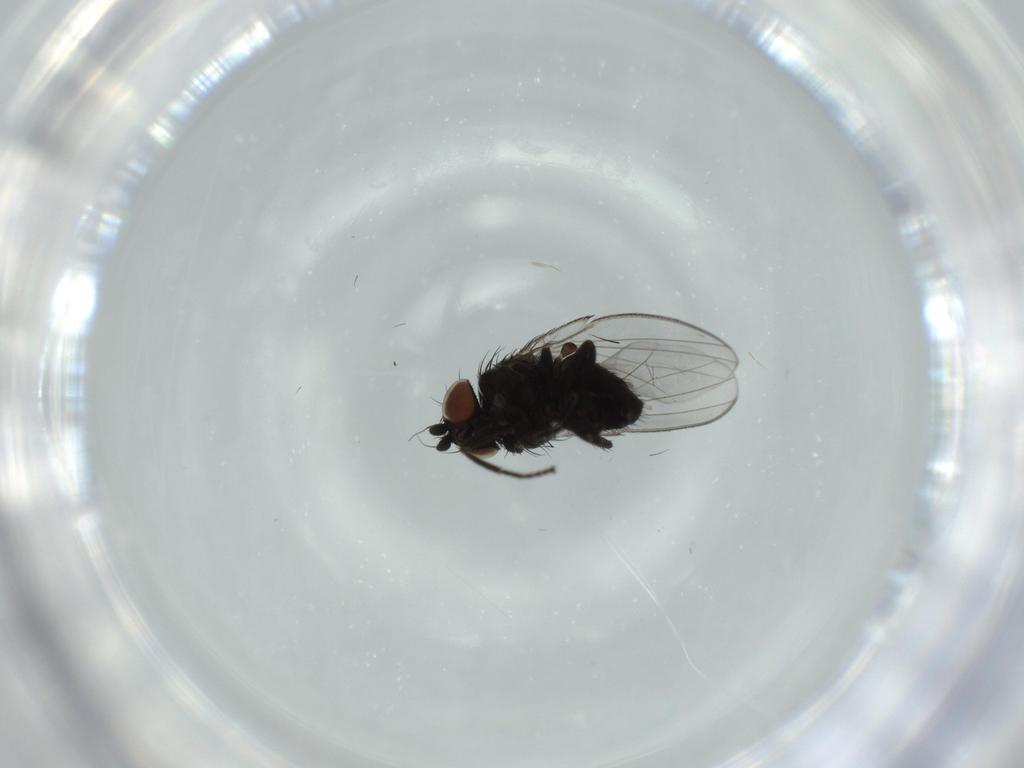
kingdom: Animalia
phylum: Arthropoda
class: Insecta
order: Diptera
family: Milichiidae
